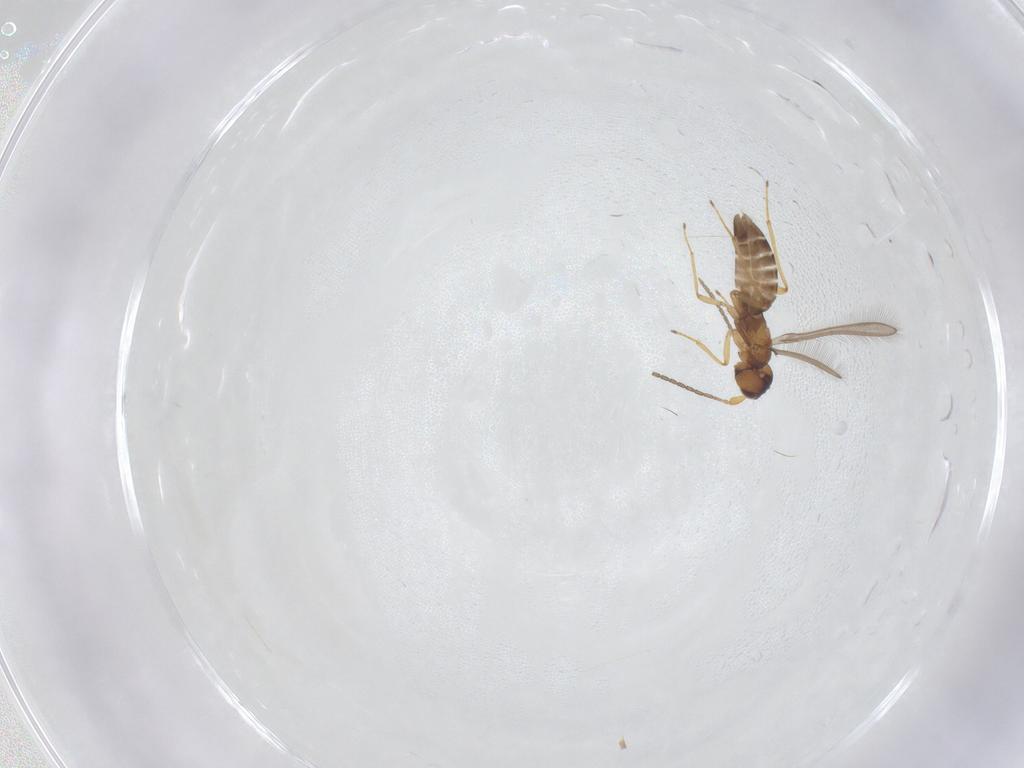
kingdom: Animalia
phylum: Arthropoda
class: Insecta
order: Hymenoptera
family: Mymaridae
